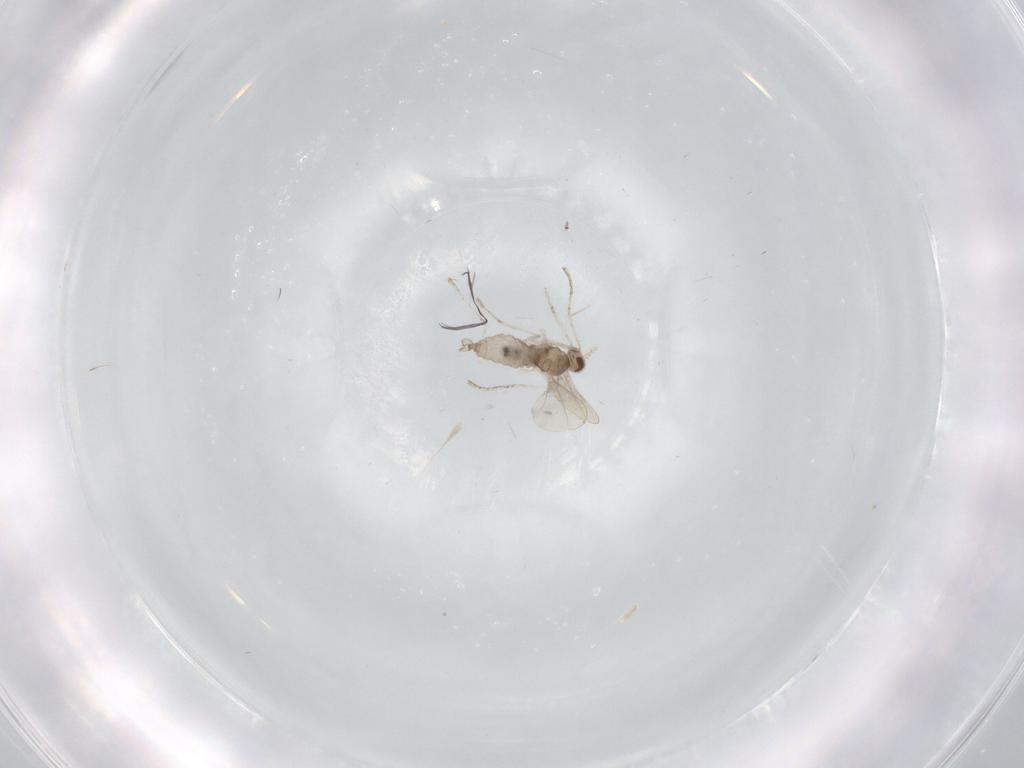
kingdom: Animalia
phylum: Arthropoda
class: Insecta
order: Diptera
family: Cecidomyiidae
